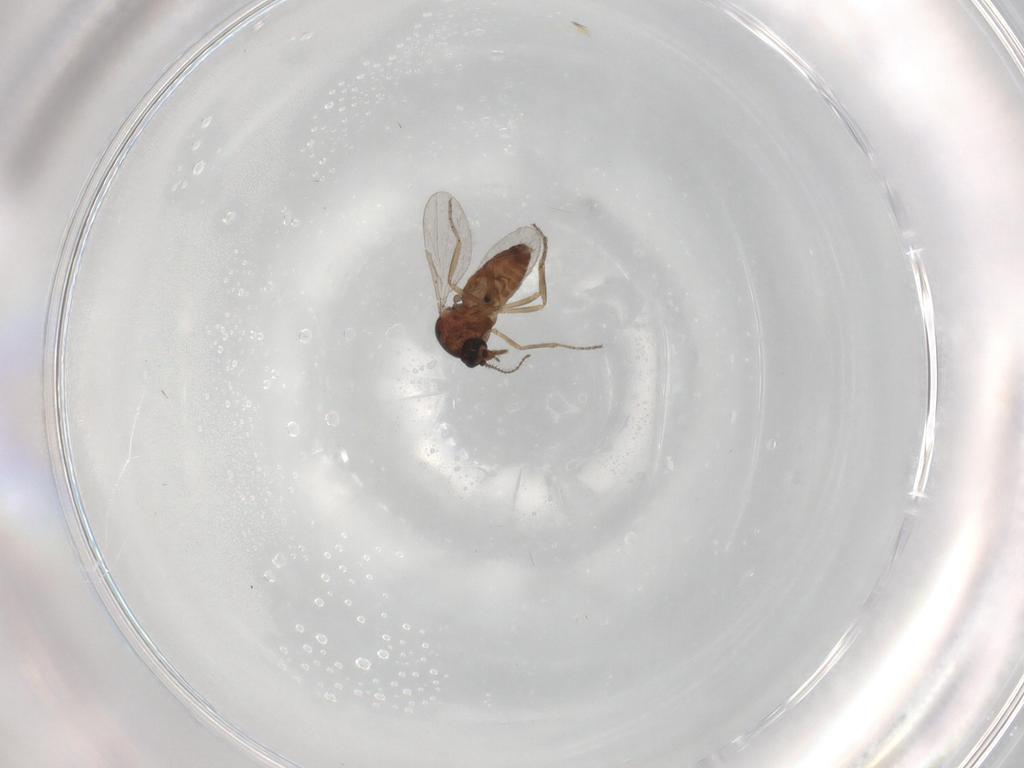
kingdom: Animalia
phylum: Arthropoda
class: Insecta
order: Diptera
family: Ceratopogonidae
